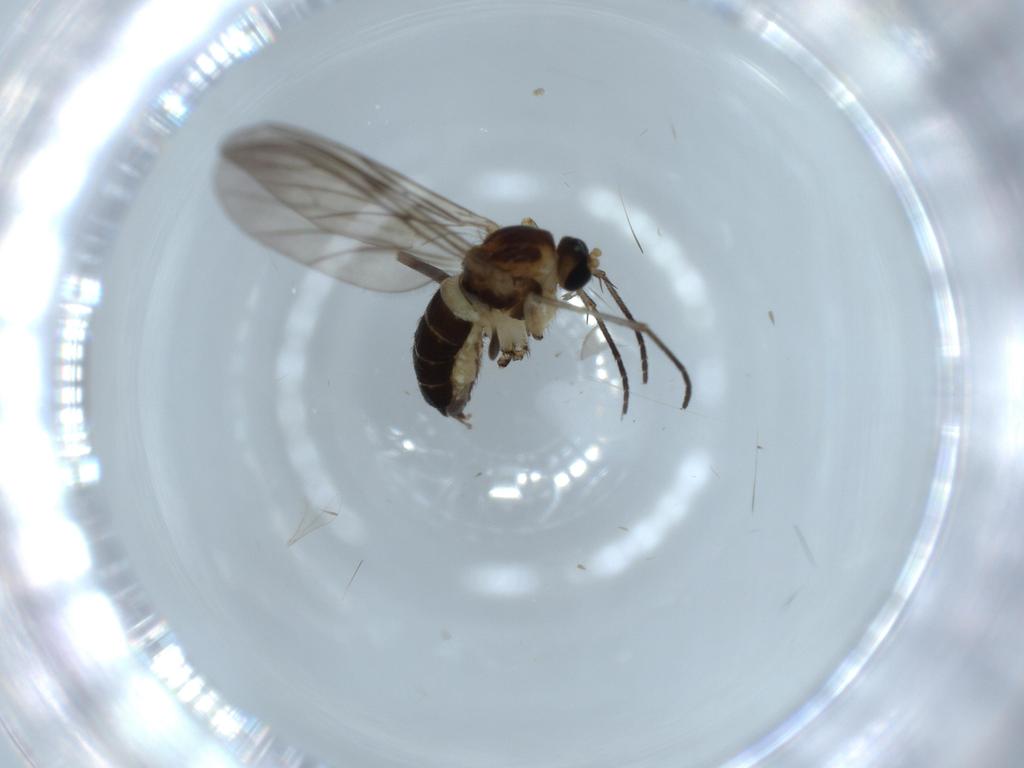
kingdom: Animalia
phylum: Arthropoda
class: Insecta
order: Diptera
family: Sciaridae
